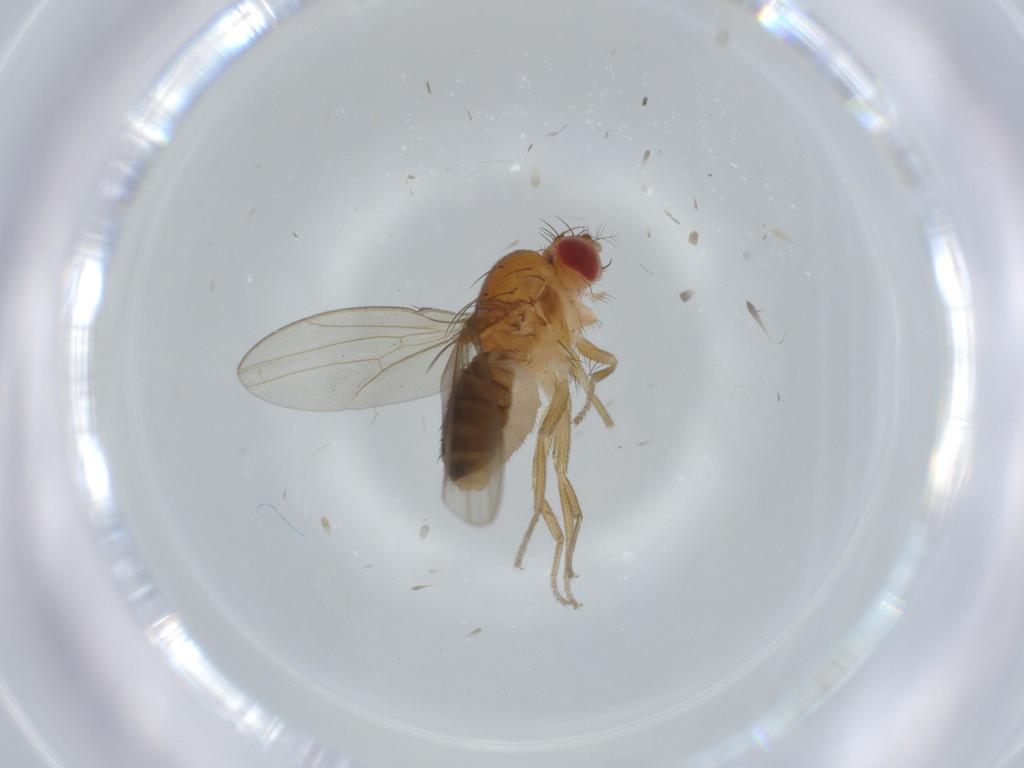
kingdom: Animalia
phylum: Arthropoda
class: Insecta
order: Diptera
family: Drosophilidae
